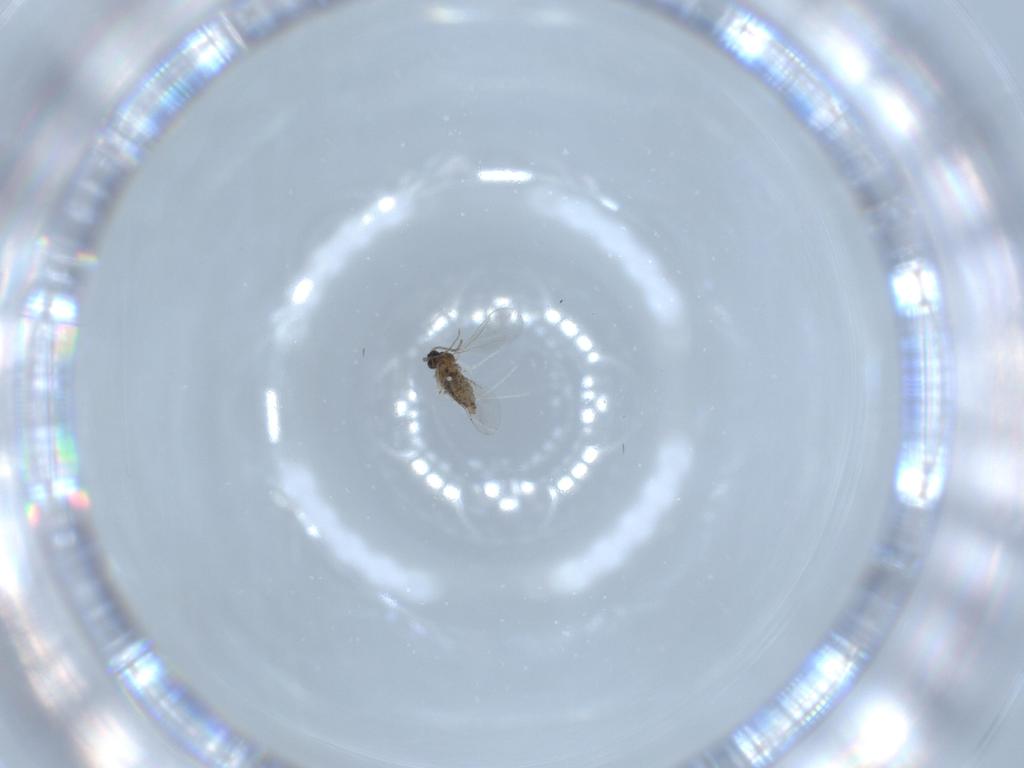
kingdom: Animalia
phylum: Arthropoda
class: Insecta
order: Diptera
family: Cecidomyiidae
